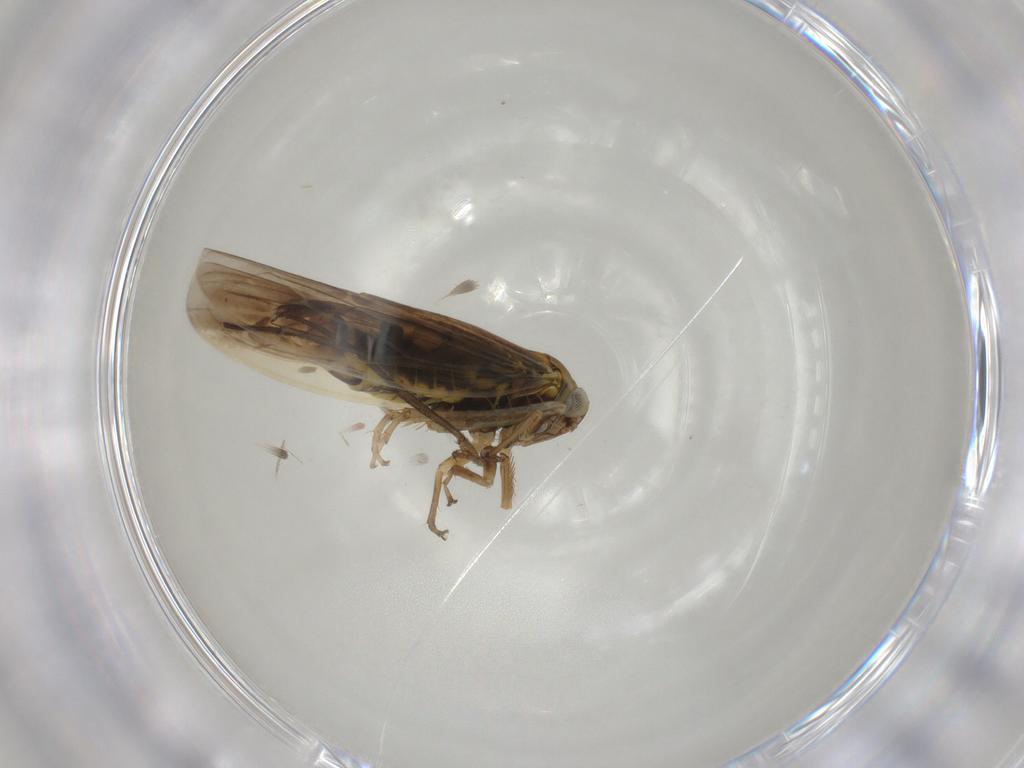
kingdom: Animalia
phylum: Arthropoda
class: Insecta
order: Hemiptera
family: Cicadellidae
